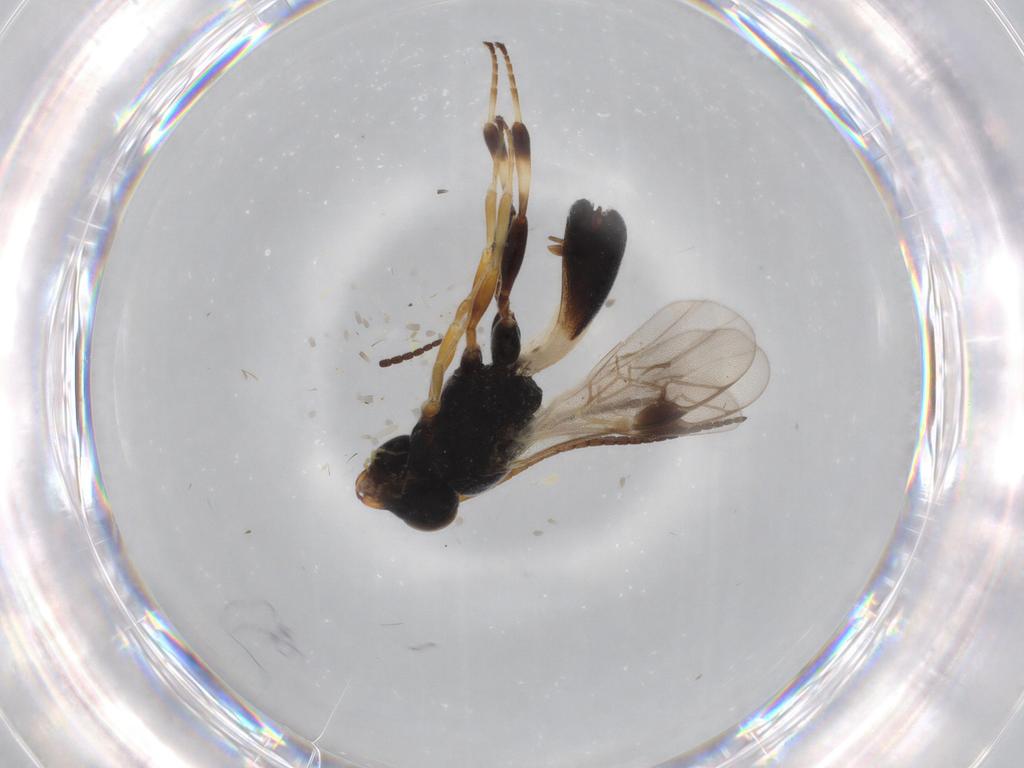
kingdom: Animalia
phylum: Arthropoda
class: Insecta
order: Hymenoptera
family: Braconidae
